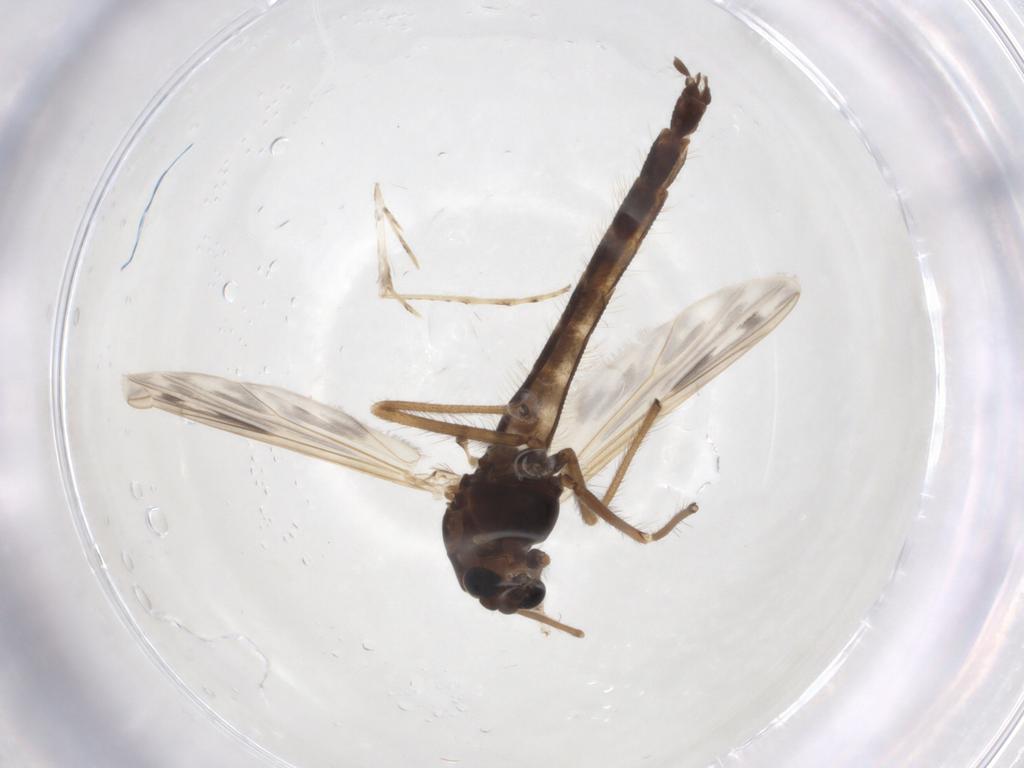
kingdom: Animalia
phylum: Arthropoda
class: Insecta
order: Diptera
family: Chironomidae
